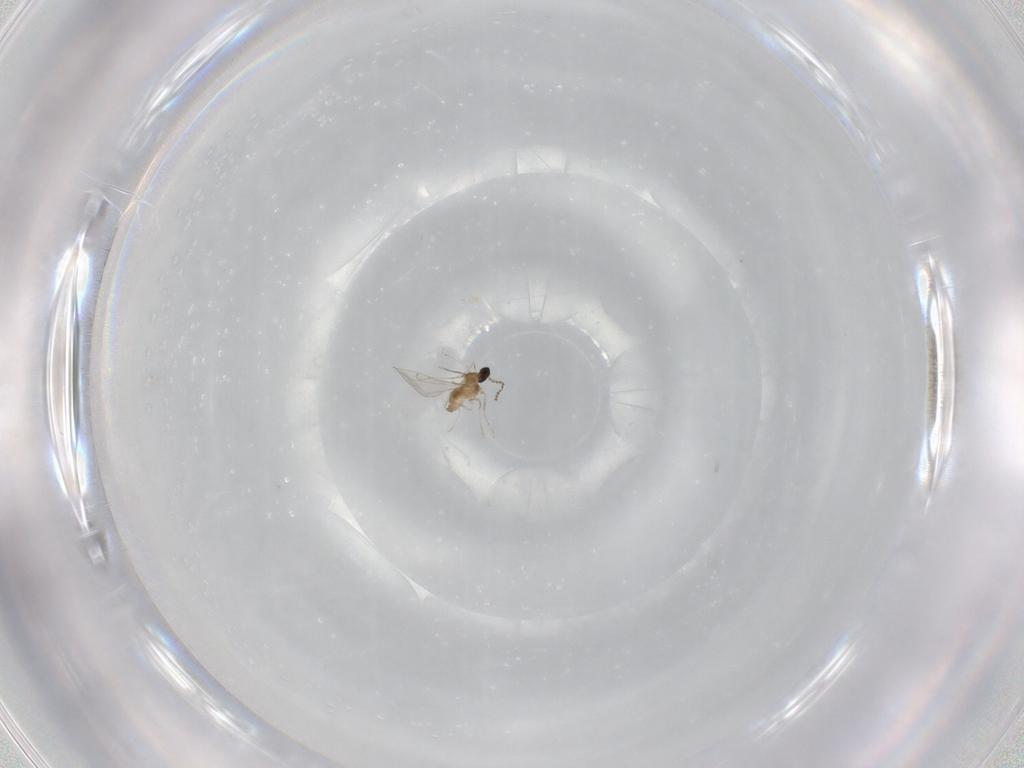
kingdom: Animalia
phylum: Arthropoda
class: Insecta
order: Diptera
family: Cecidomyiidae
